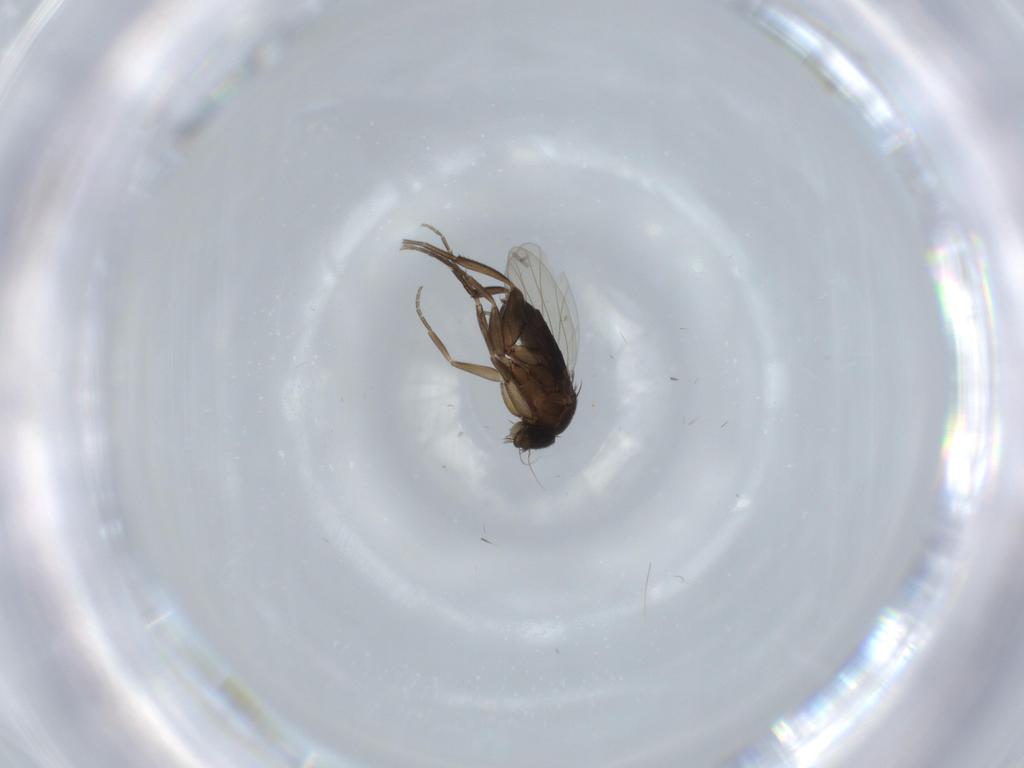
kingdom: Animalia
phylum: Arthropoda
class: Insecta
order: Diptera
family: Phoridae
